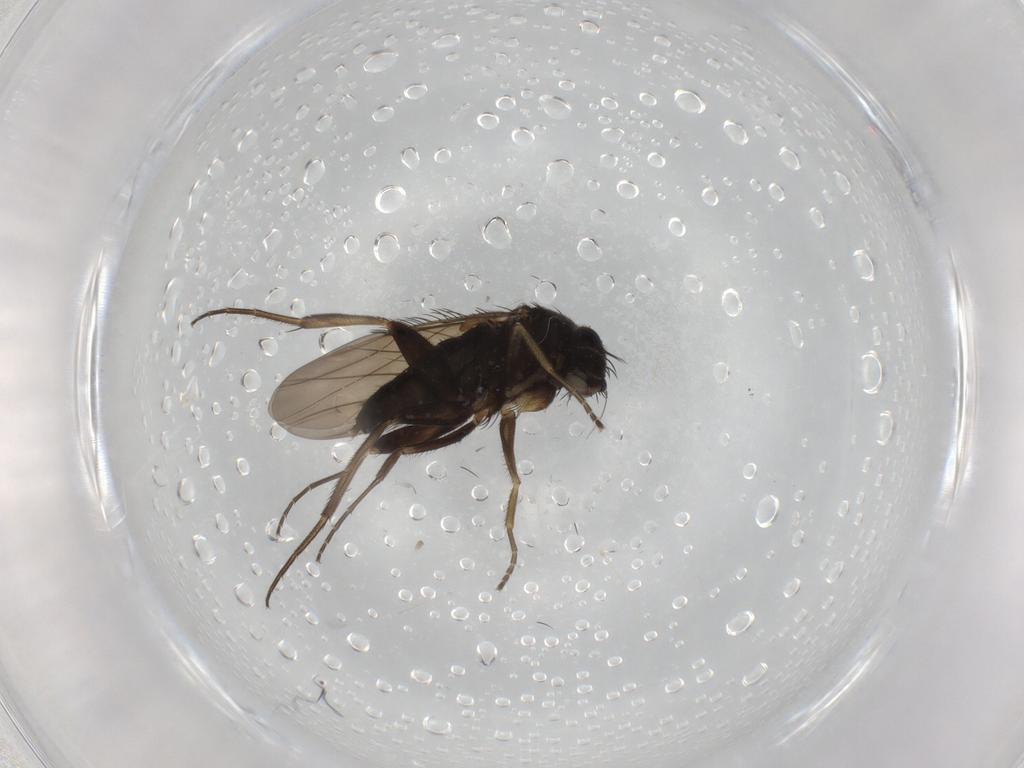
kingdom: Animalia
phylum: Arthropoda
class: Insecta
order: Diptera
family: Phoridae
